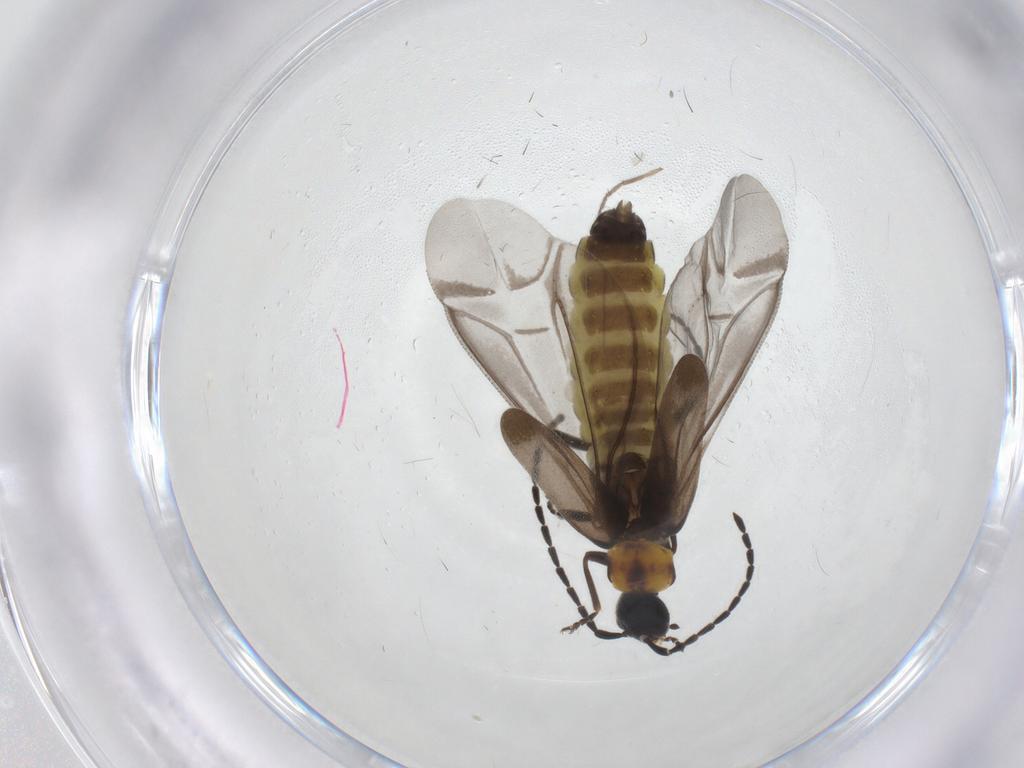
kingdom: Animalia
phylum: Arthropoda
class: Insecta
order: Coleoptera
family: Cantharidae
